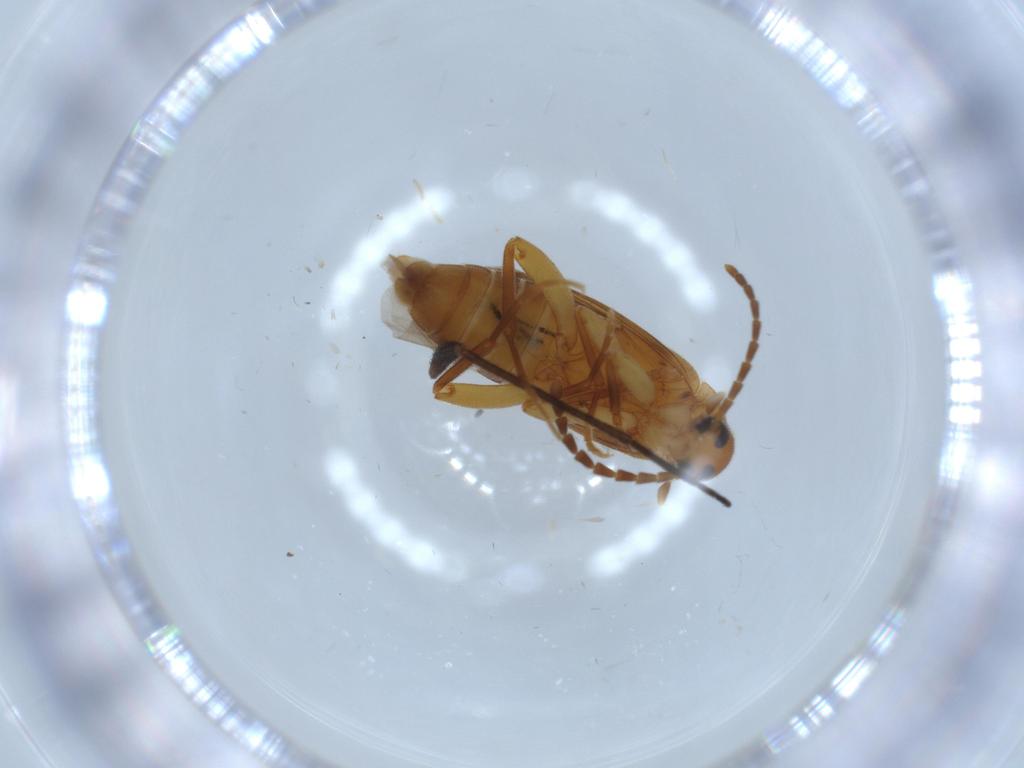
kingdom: Animalia
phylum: Arthropoda
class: Insecta
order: Coleoptera
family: Scraptiidae
